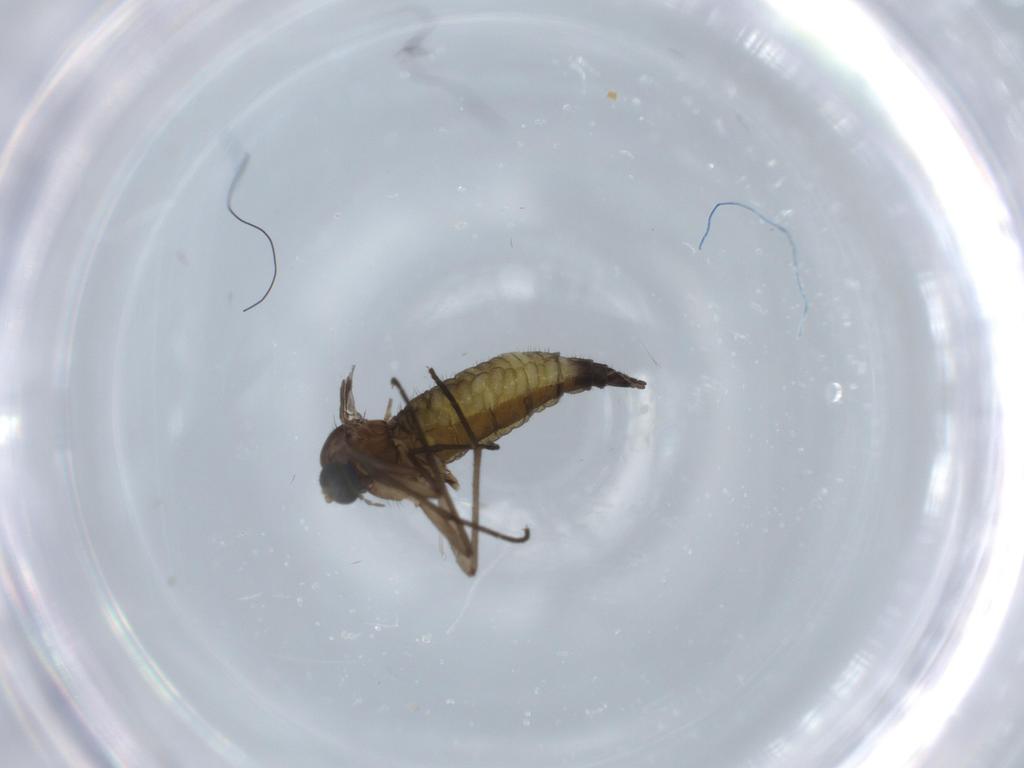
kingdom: Animalia
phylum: Arthropoda
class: Insecta
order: Diptera
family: Sciaridae
